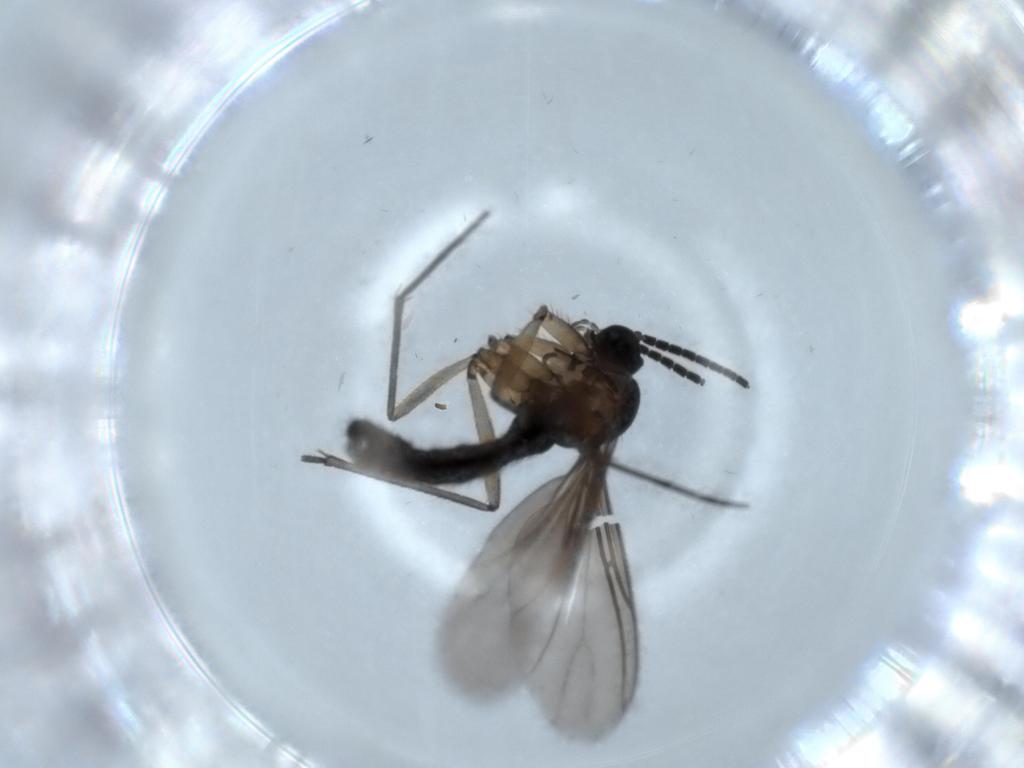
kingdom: Animalia
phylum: Arthropoda
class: Insecta
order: Diptera
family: Sciaridae
